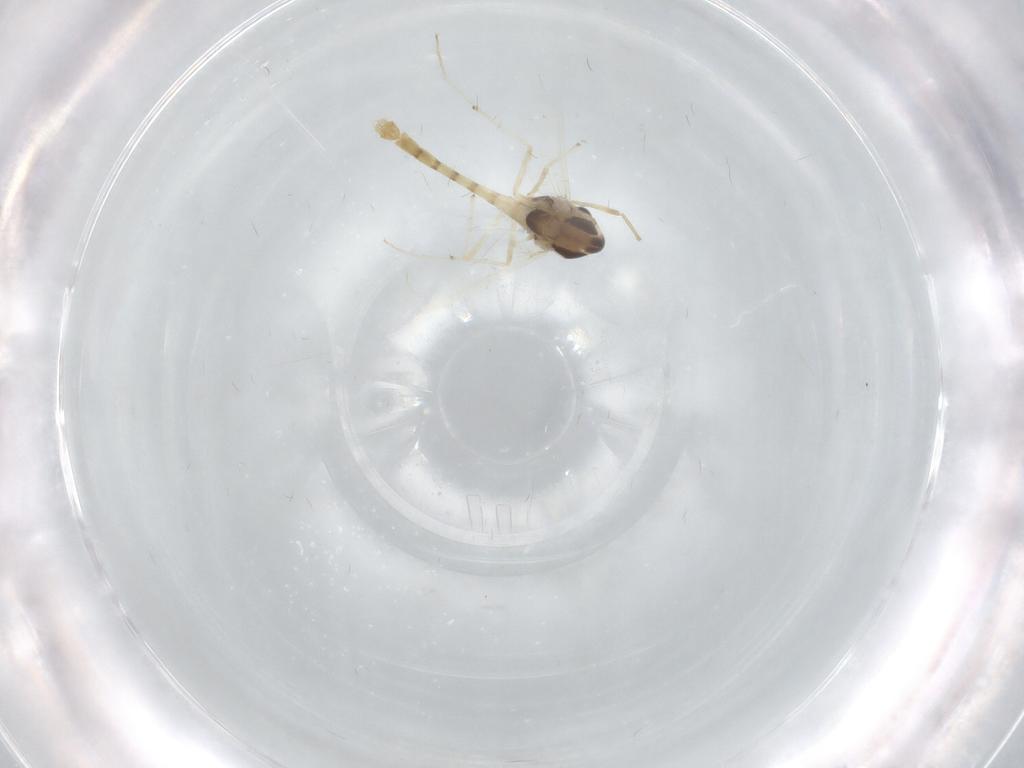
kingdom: Animalia
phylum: Arthropoda
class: Insecta
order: Diptera
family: Chironomidae
